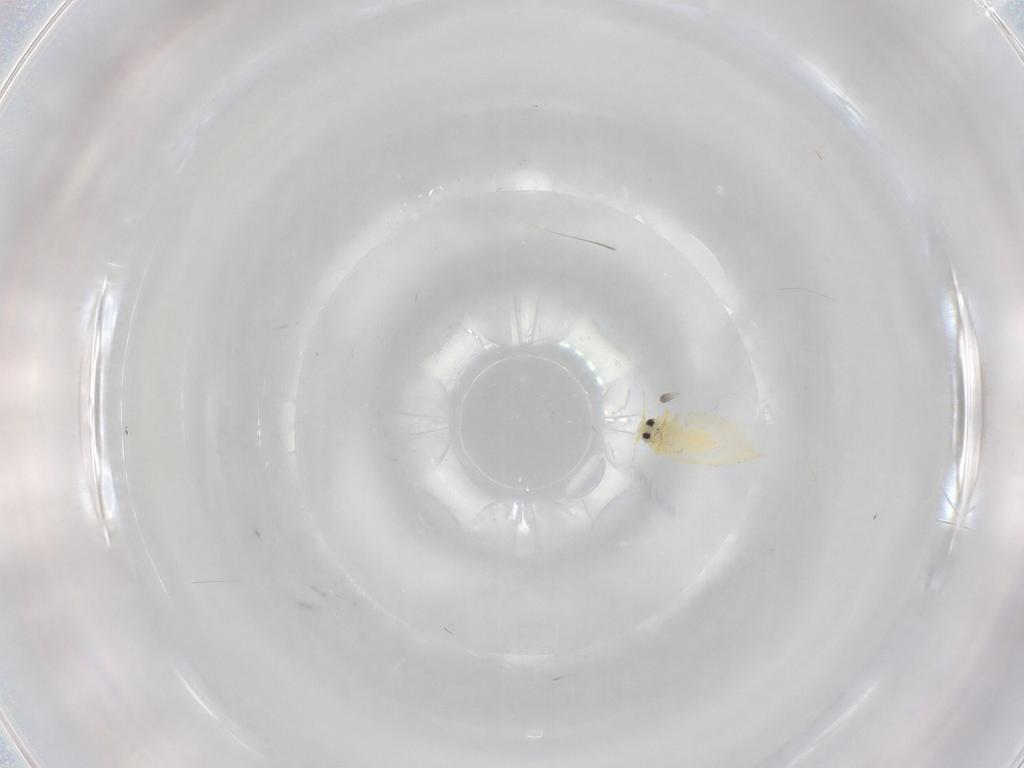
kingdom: Animalia
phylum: Arthropoda
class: Insecta
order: Hemiptera
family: Aleyrodidae
